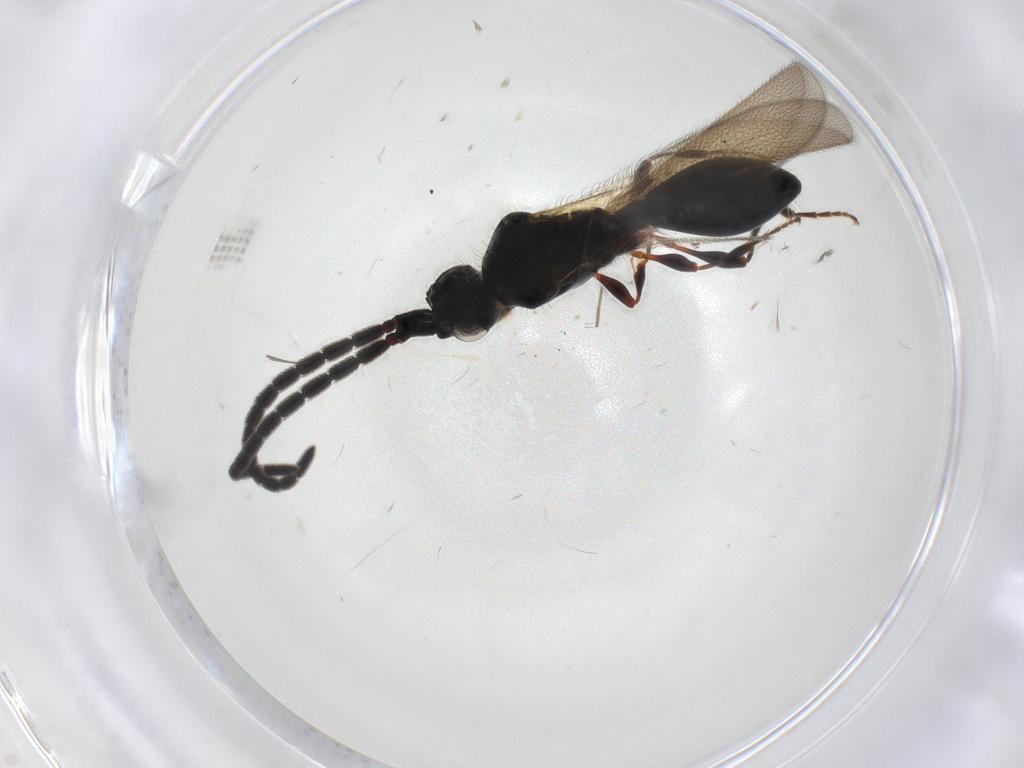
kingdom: Animalia
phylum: Arthropoda
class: Insecta
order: Hymenoptera
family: Diapriidae
